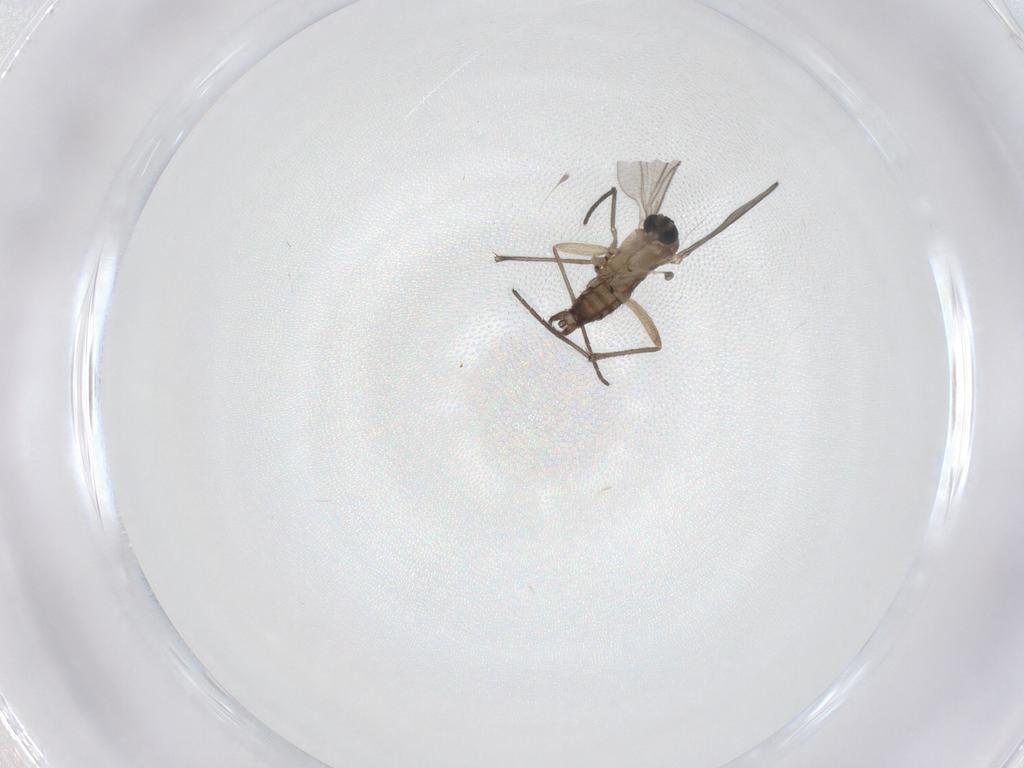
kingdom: Animalia
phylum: Arthropoda
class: Insecta
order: Diptera
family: Sciaridae
